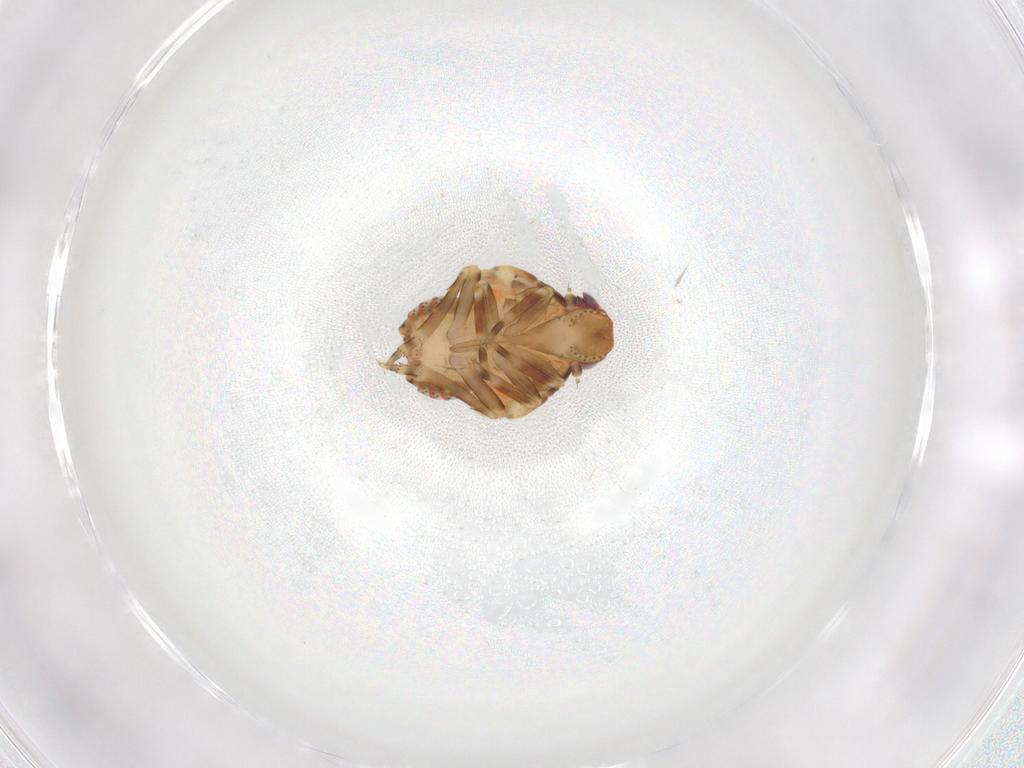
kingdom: Animalia
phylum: Arthropoda
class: Insecta
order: Hemiptera
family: Flatidae
